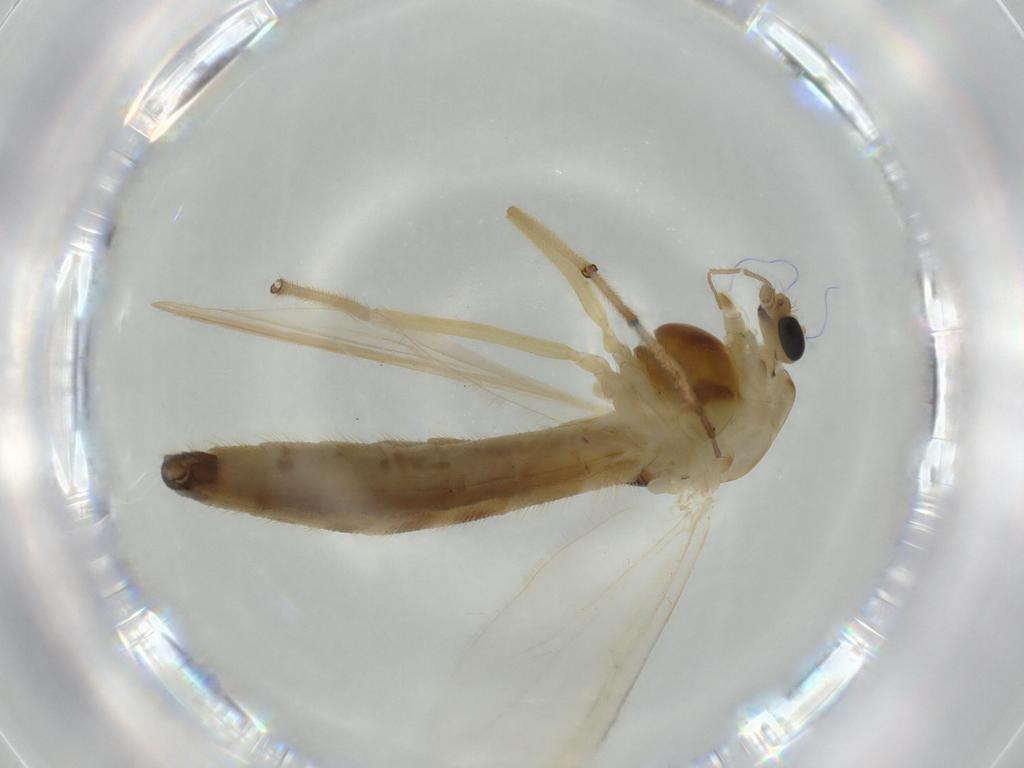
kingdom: Animalia
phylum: Arthropoda
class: Insecta
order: Diptera
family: Chironomidae
